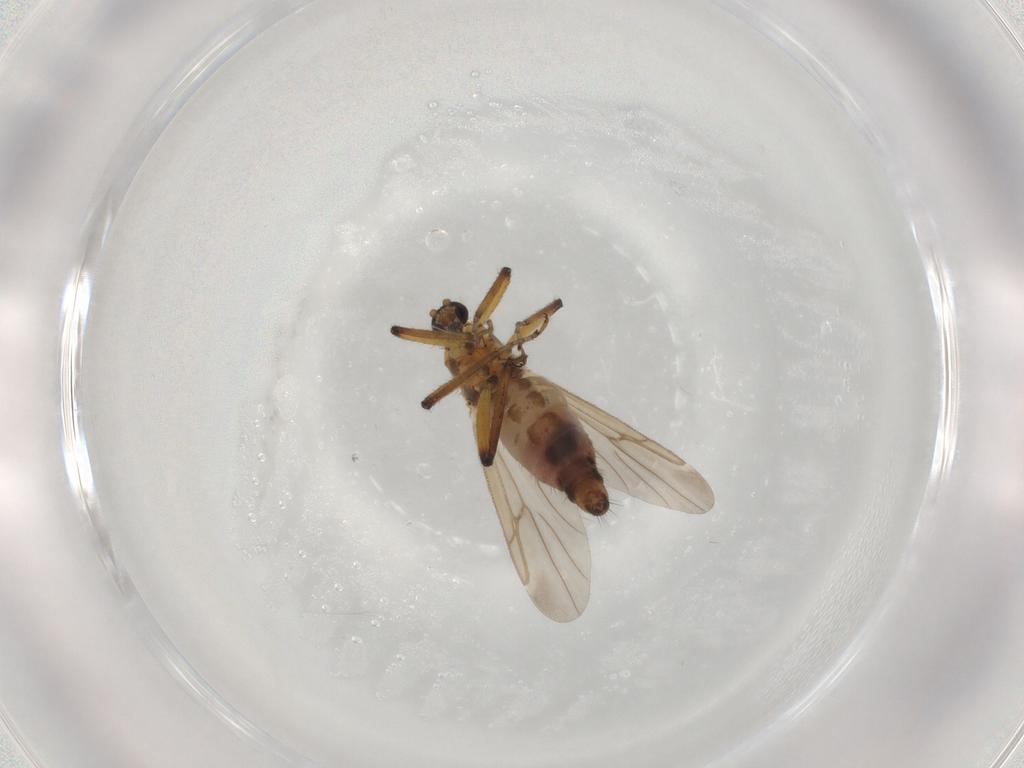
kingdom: Animalia
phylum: Arthropoda
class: Insecta
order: Diptera
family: Ceratopogonidae
